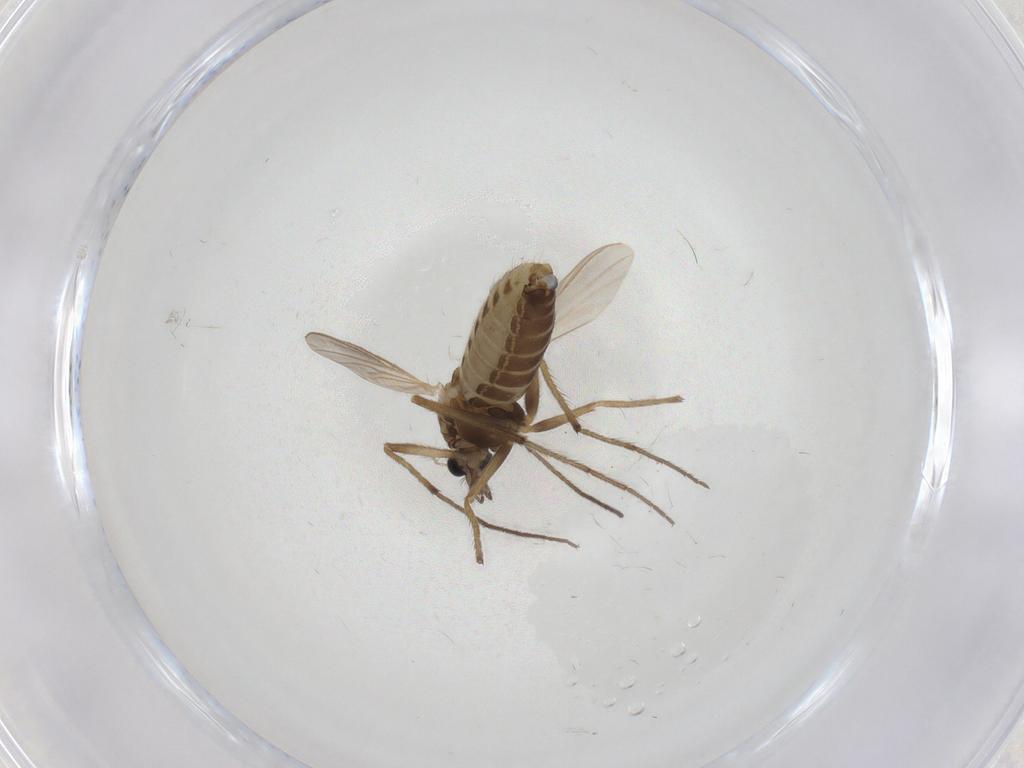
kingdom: Animalia
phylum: Arthropoda
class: Insecta
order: Diptera
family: Chironomidae
